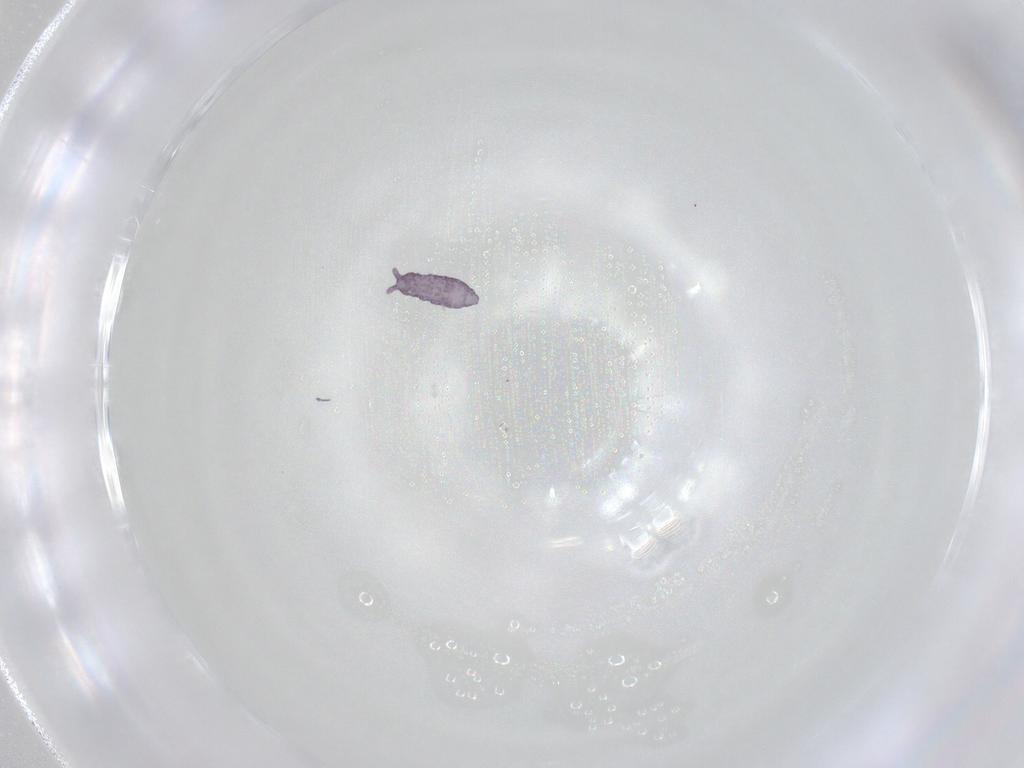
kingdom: Animalia
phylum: Arthropoda
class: Collembola
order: Poduromorpha
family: Brachystomellidae
